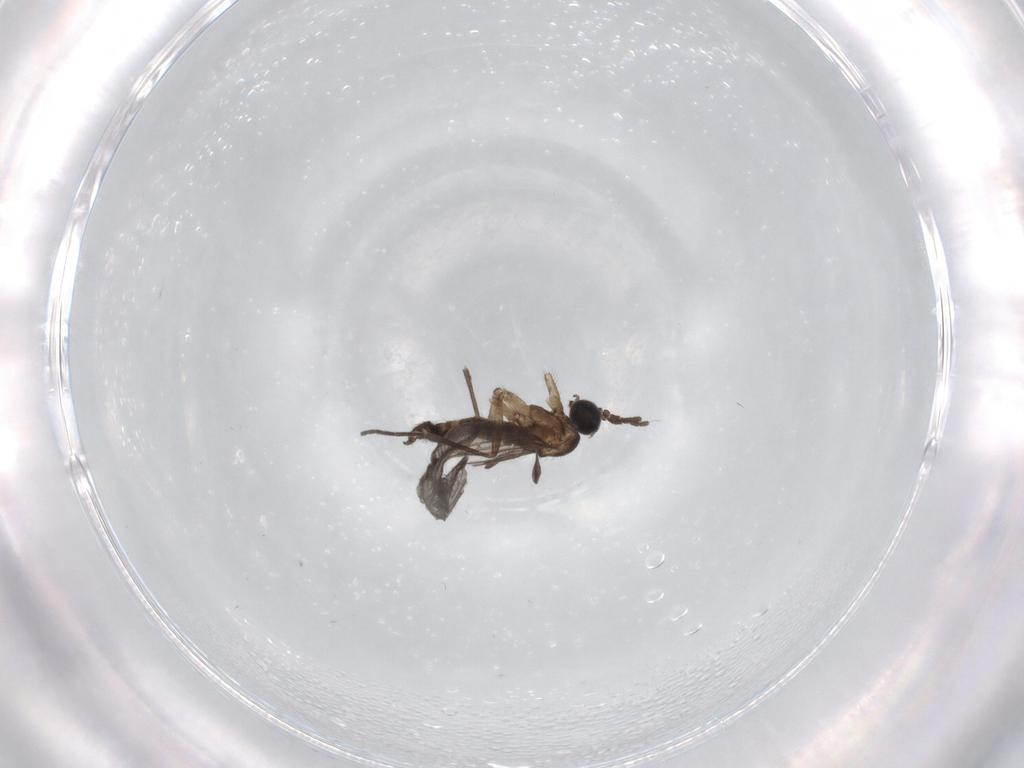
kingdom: Animalia
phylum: Arthropoda
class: Insecta
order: Diptera
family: Sciaridae
